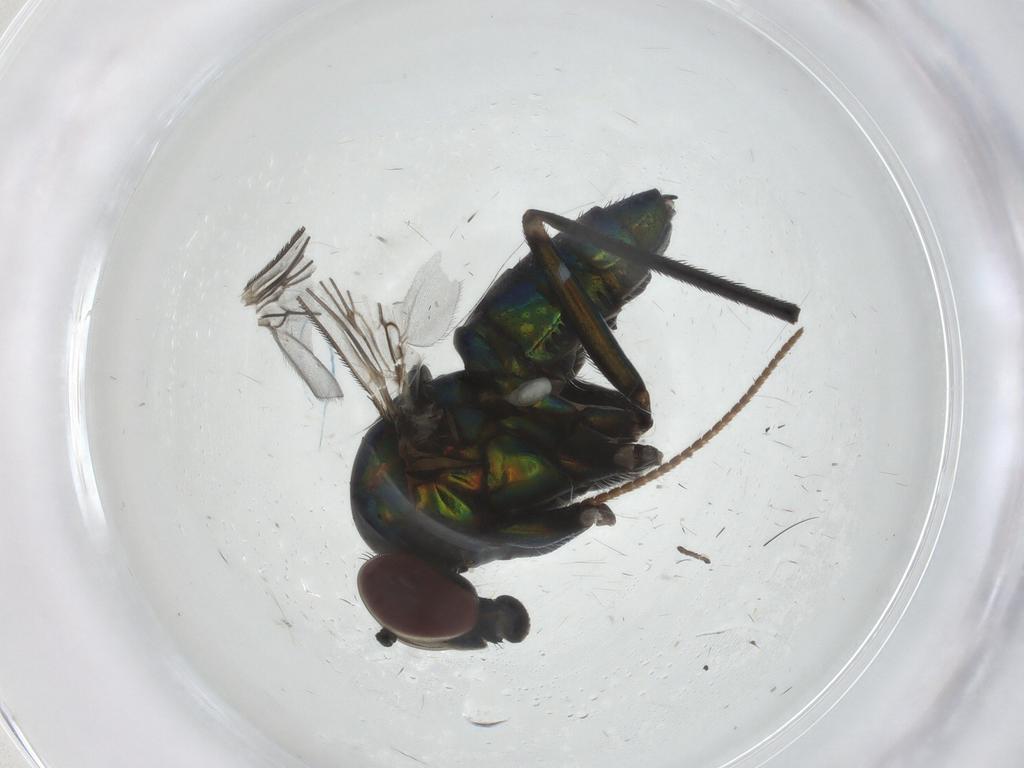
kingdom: Animalia
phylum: Arthropoda
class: Insecta
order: Diptera
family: Dolichopodidae
